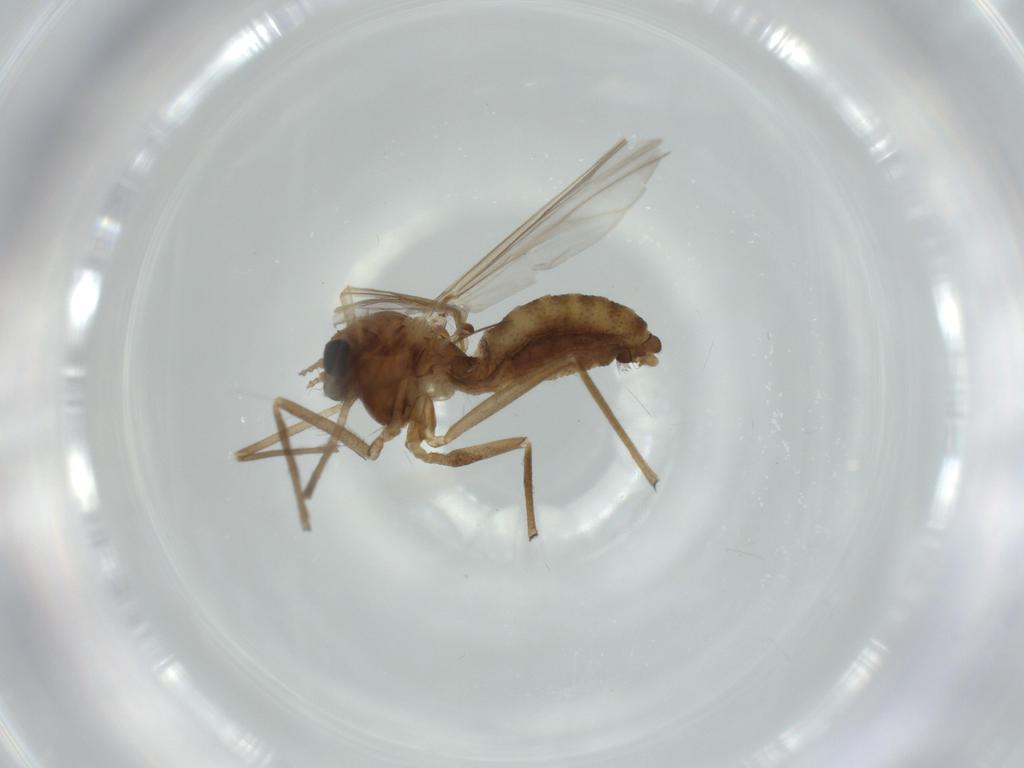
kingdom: Animalia
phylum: Arthropoda
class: Insecta
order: Diptera
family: Chironomidae
